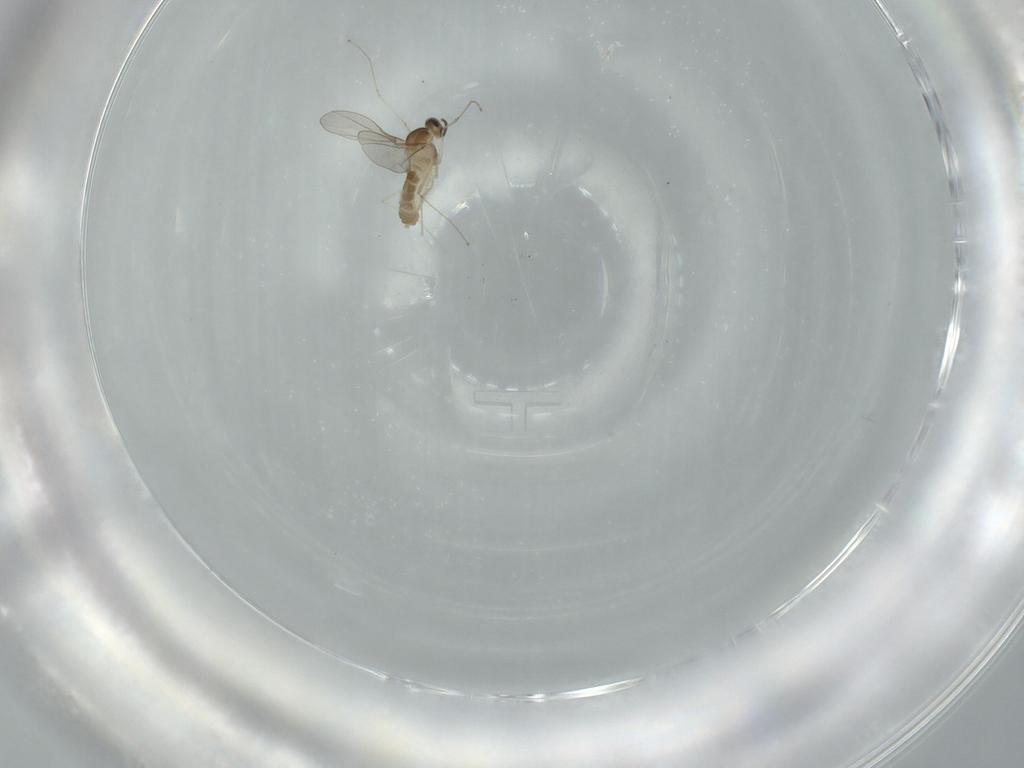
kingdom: Animalia
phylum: Arthropoda
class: Insecta
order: Diptera
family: Cecidomyiidae
